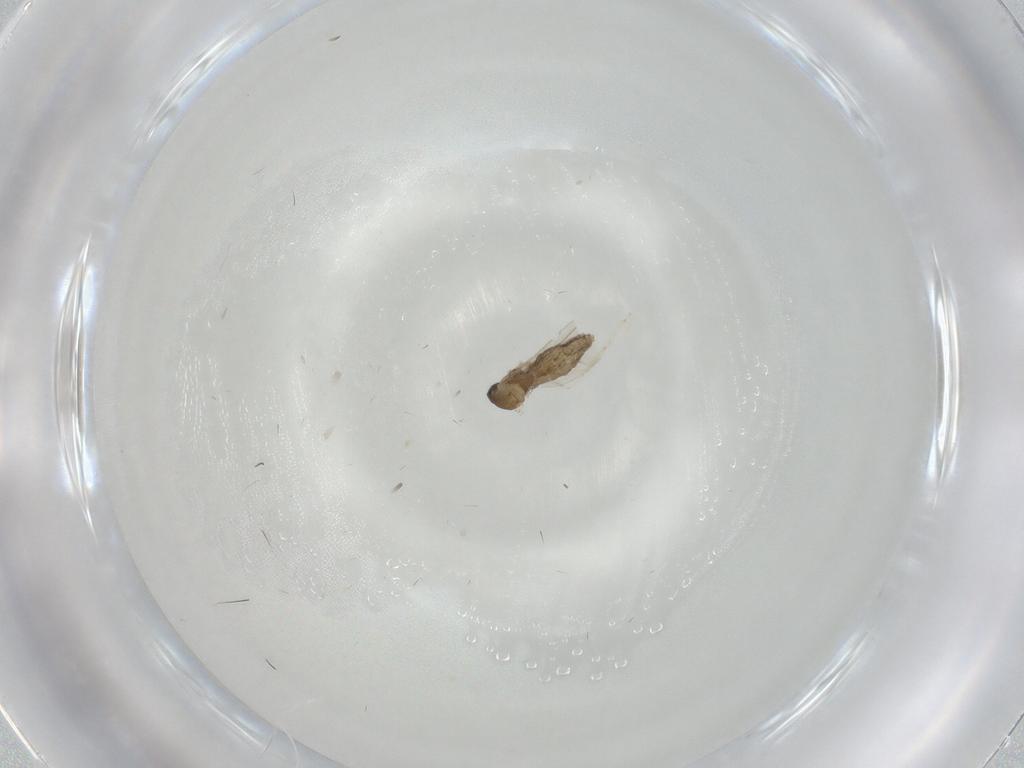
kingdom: Animalia
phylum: Arthropoda
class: Insecta
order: Diptera
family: Cecidomyiidae
